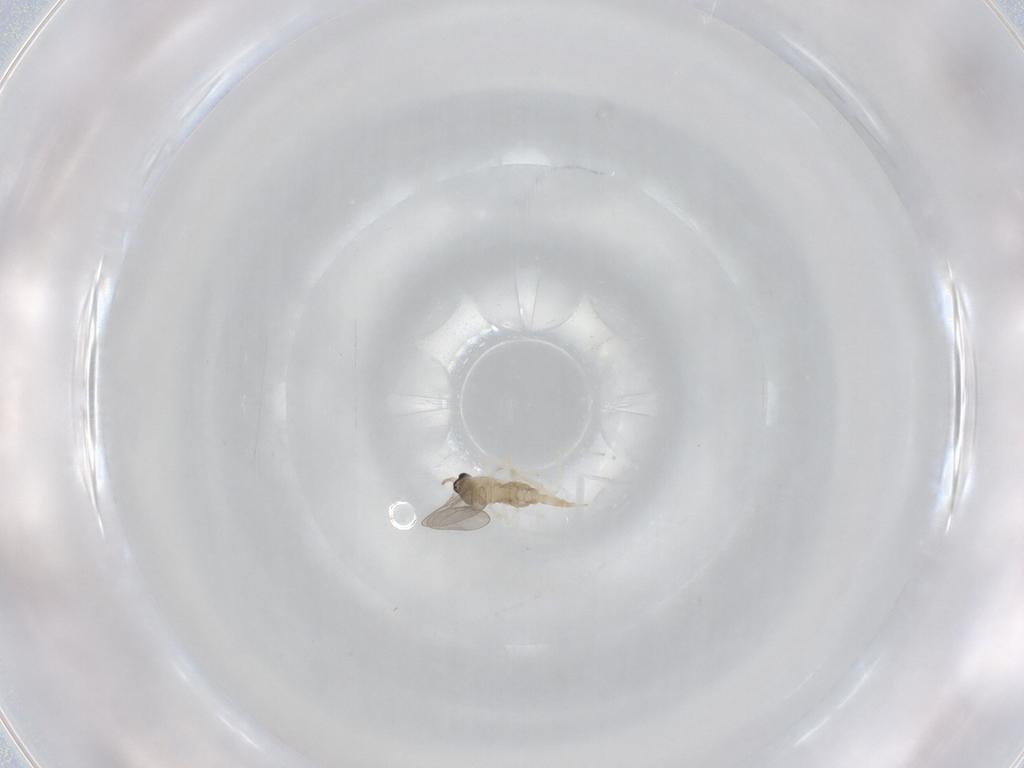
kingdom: Animalia
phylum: Arthropoda
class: Insecta
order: Diptera
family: Cecidomyiidae
